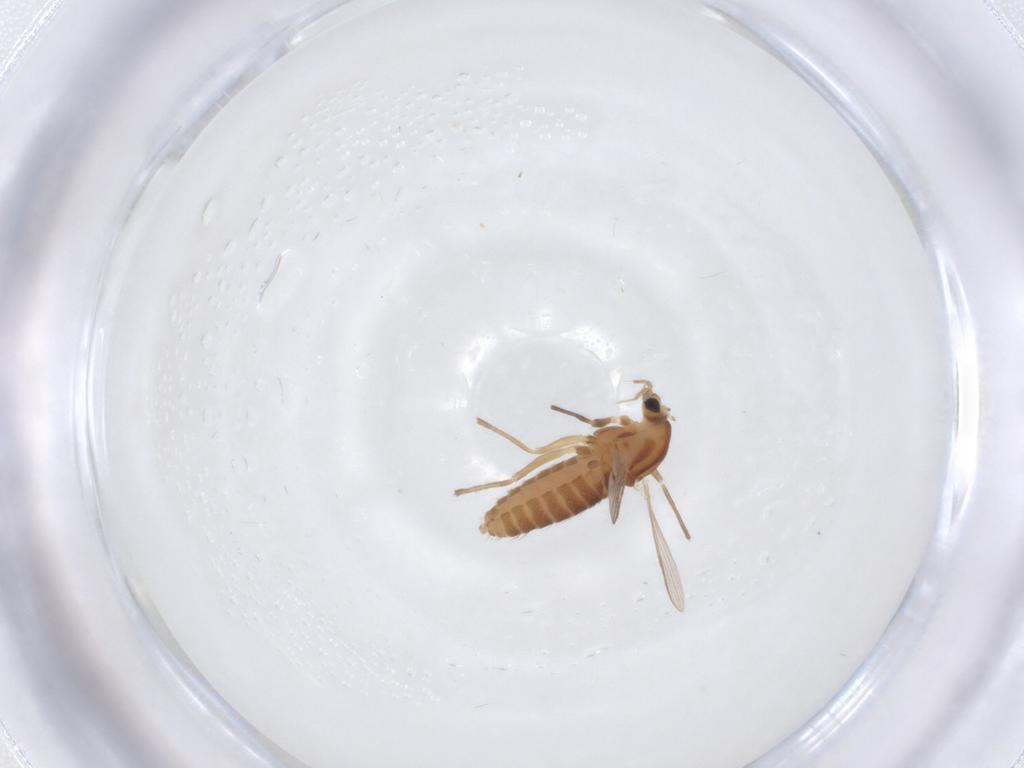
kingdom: Animalia
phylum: Arthropoda
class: Insecta
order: Diptera
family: Chironomidae
